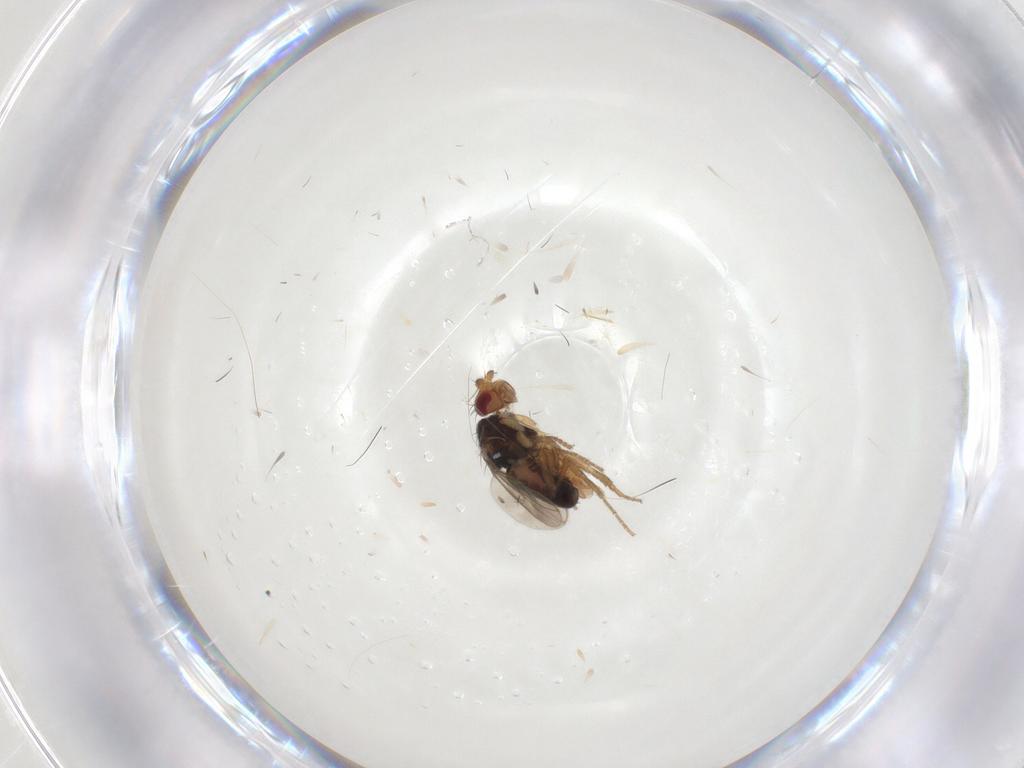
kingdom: Animalia
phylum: Arthropoda
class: Insecta
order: Diptera
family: Sphaeroceridae
